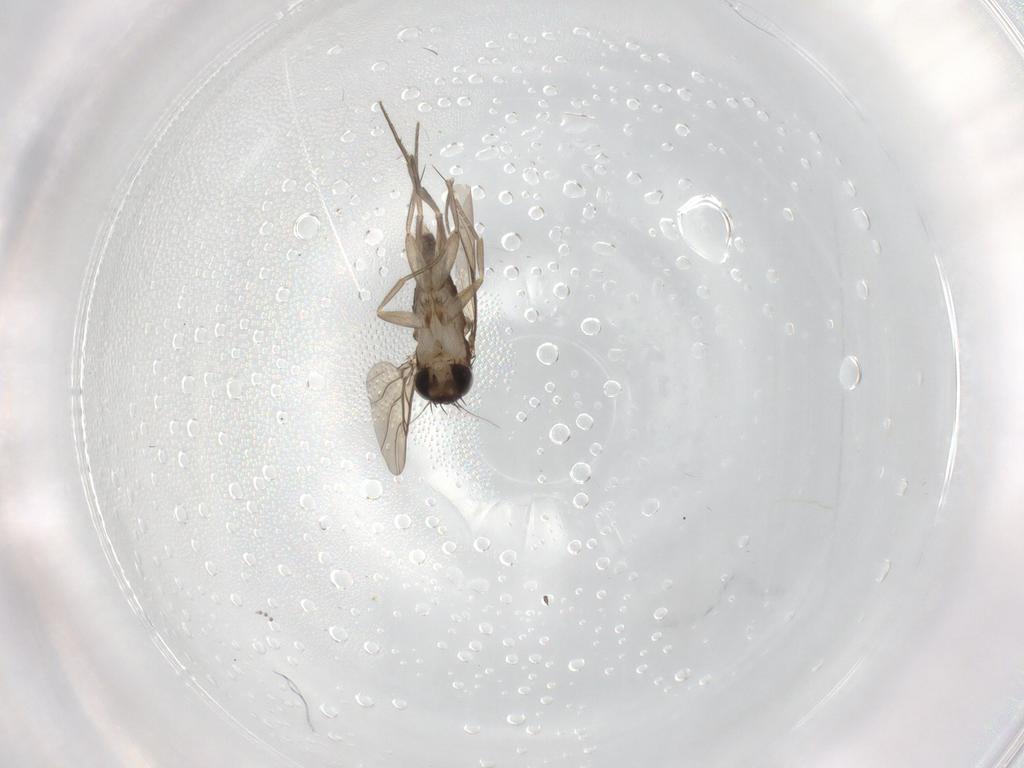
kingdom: Animalia
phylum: Arthropoda
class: Insecta
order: Diptera
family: Phoridae
